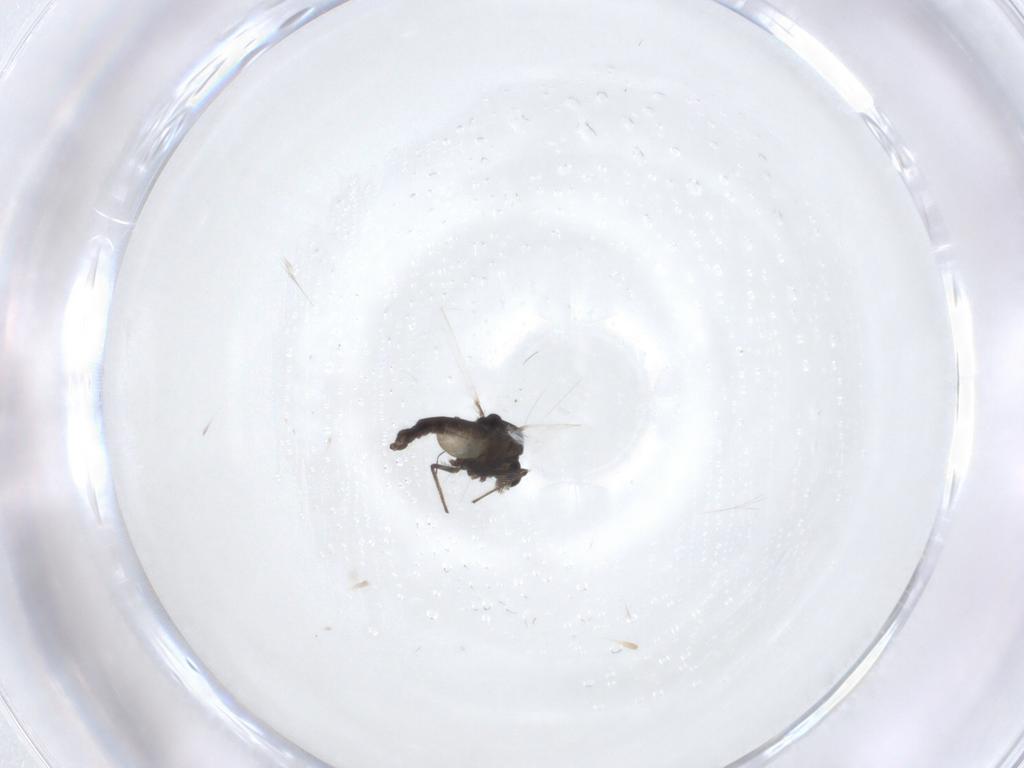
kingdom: Animalia
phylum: Arthropoda
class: Insecta
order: Diptera
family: Chironomidae
